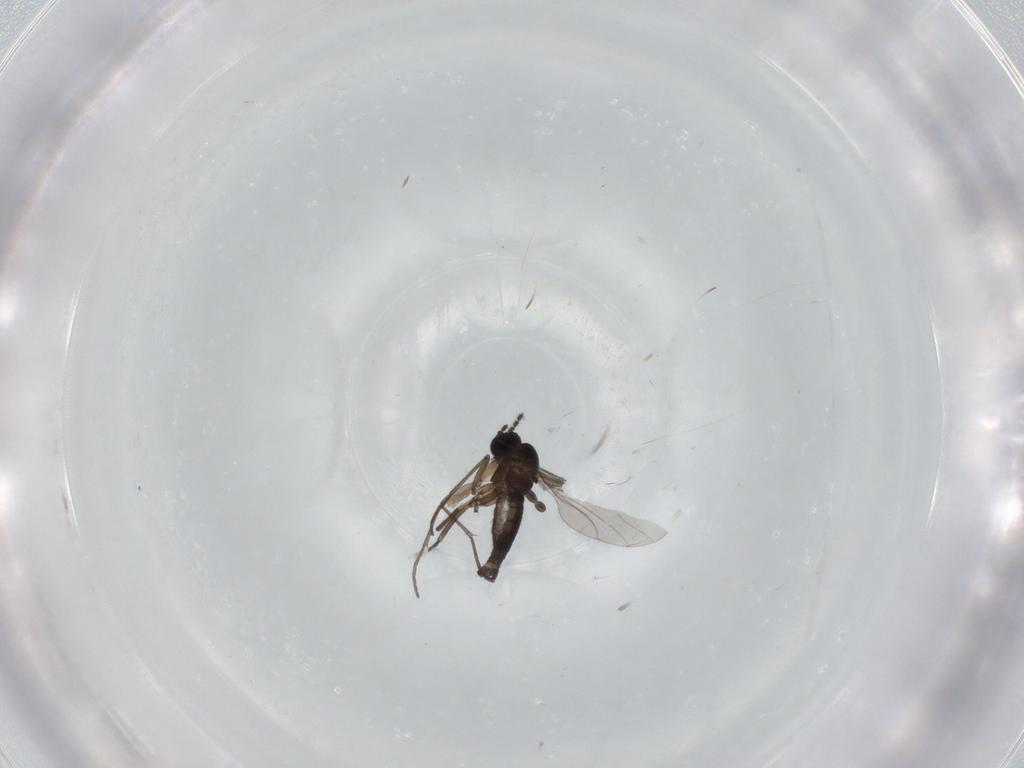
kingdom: Animalia
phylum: Arthropoda
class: Insecta
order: Diptera
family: Sciaridae
